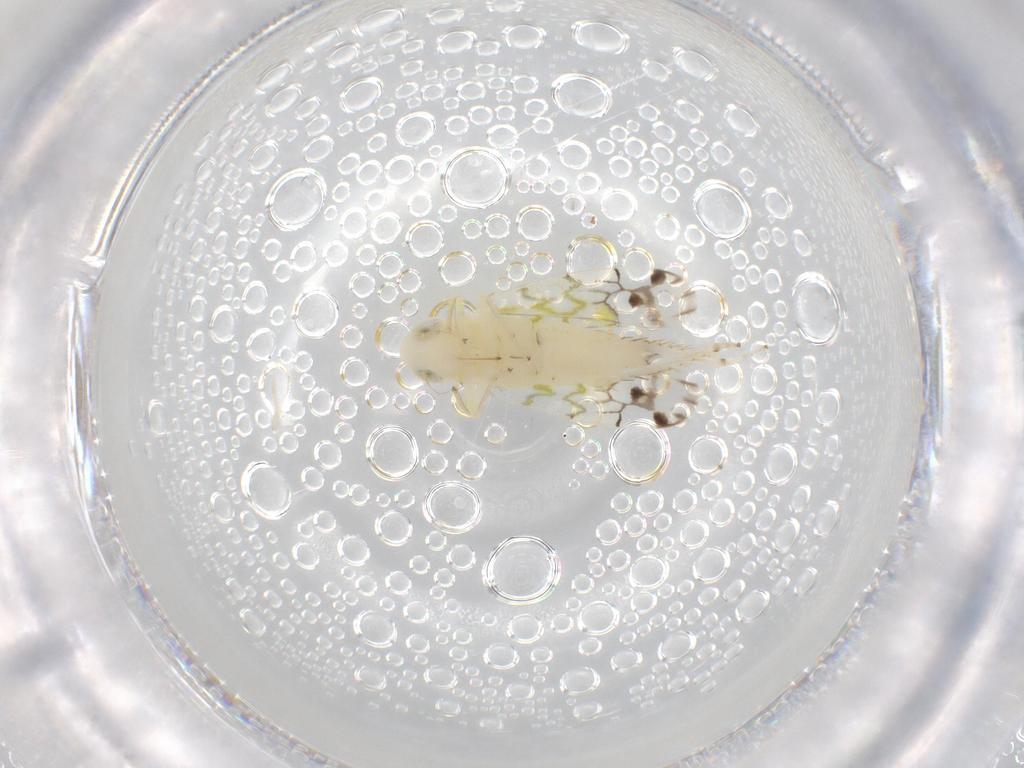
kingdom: Animalia
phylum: Arthropoda
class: Insecta
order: Hemiptera
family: Cicadellidae
